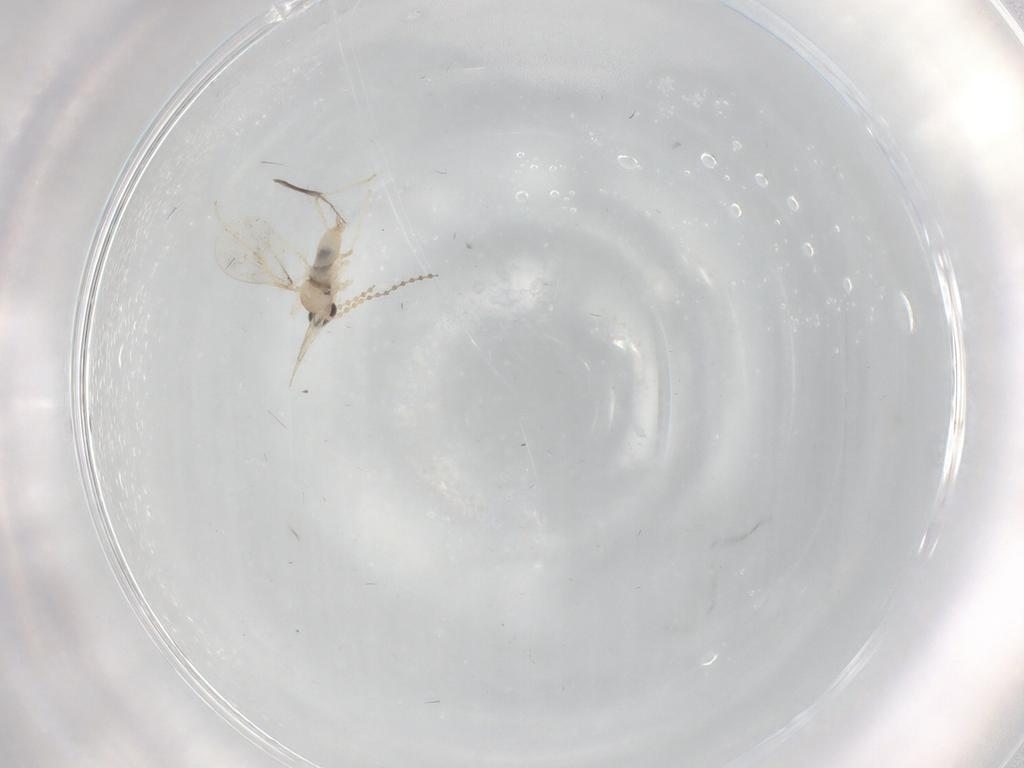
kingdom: Animalia
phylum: Arthropoda
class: Insecta
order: Diptera
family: Cecidomyiidae
